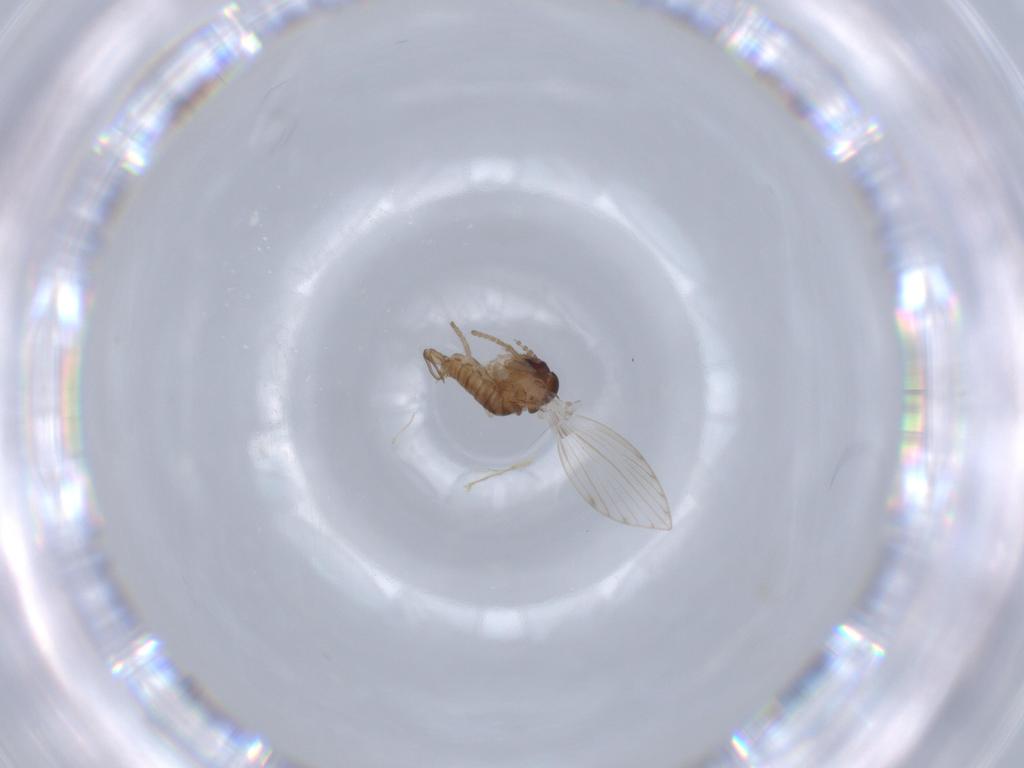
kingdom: Animalia
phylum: Arthropoda
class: Insecta
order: Diptera
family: Psychodidae
